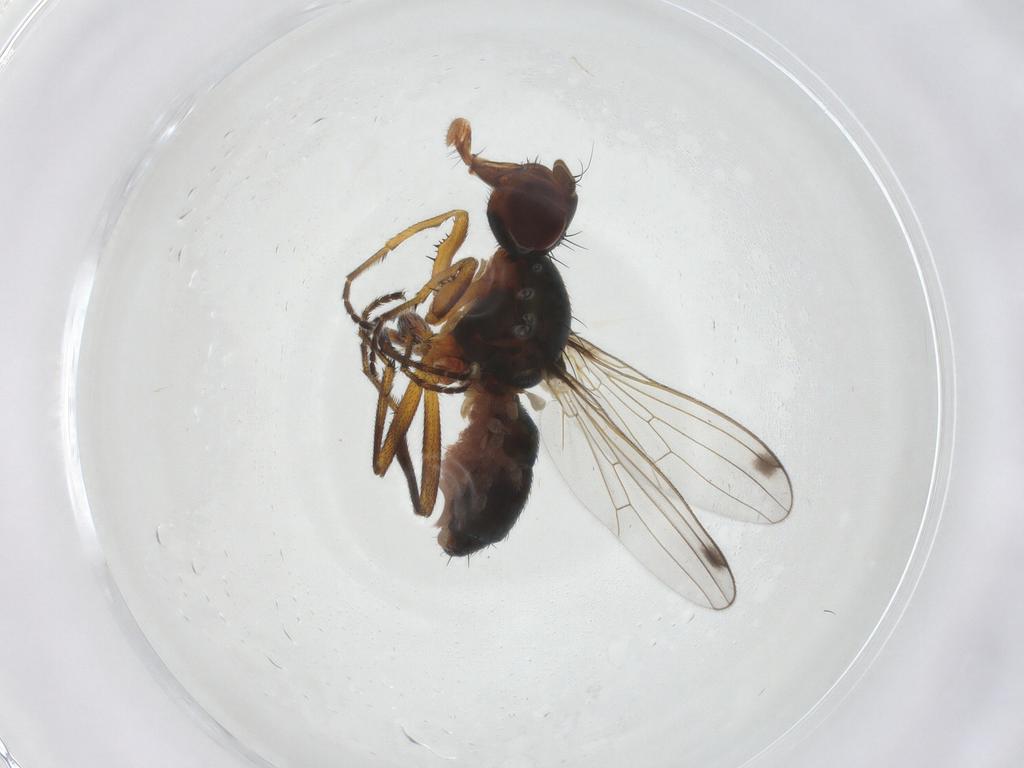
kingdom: Animalia
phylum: Arthropoda
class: Insecta
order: Diptera
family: Sepsidae
